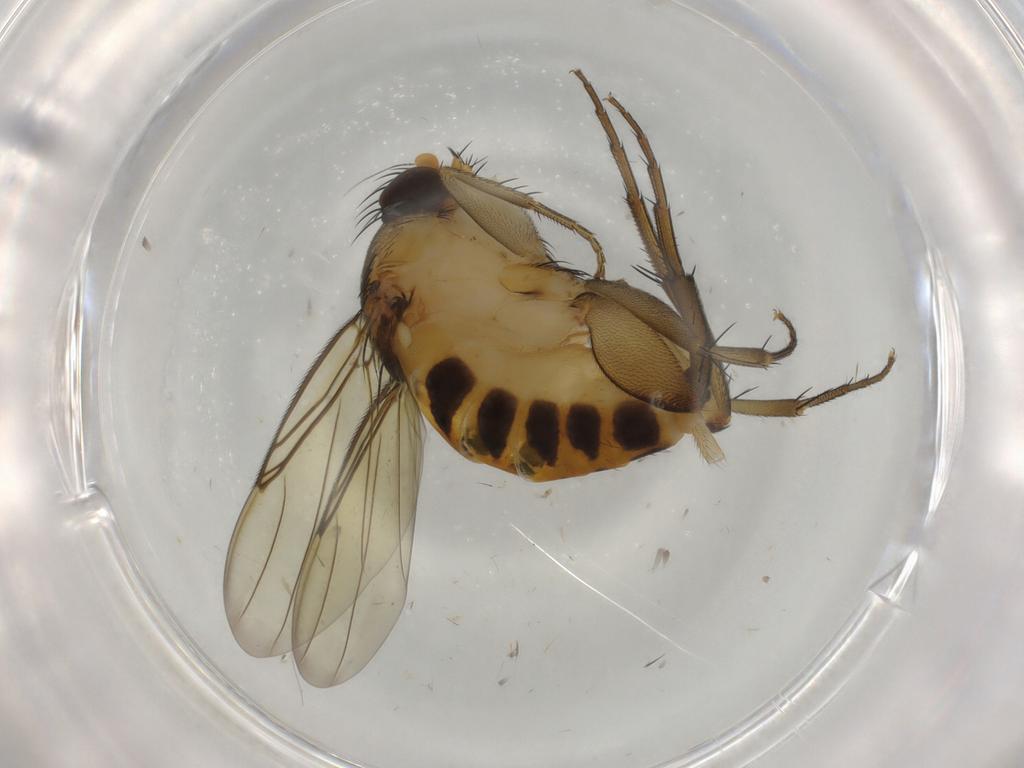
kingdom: Animalia
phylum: Arthropoda
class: Insecta
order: Diptera
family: Phoridae
